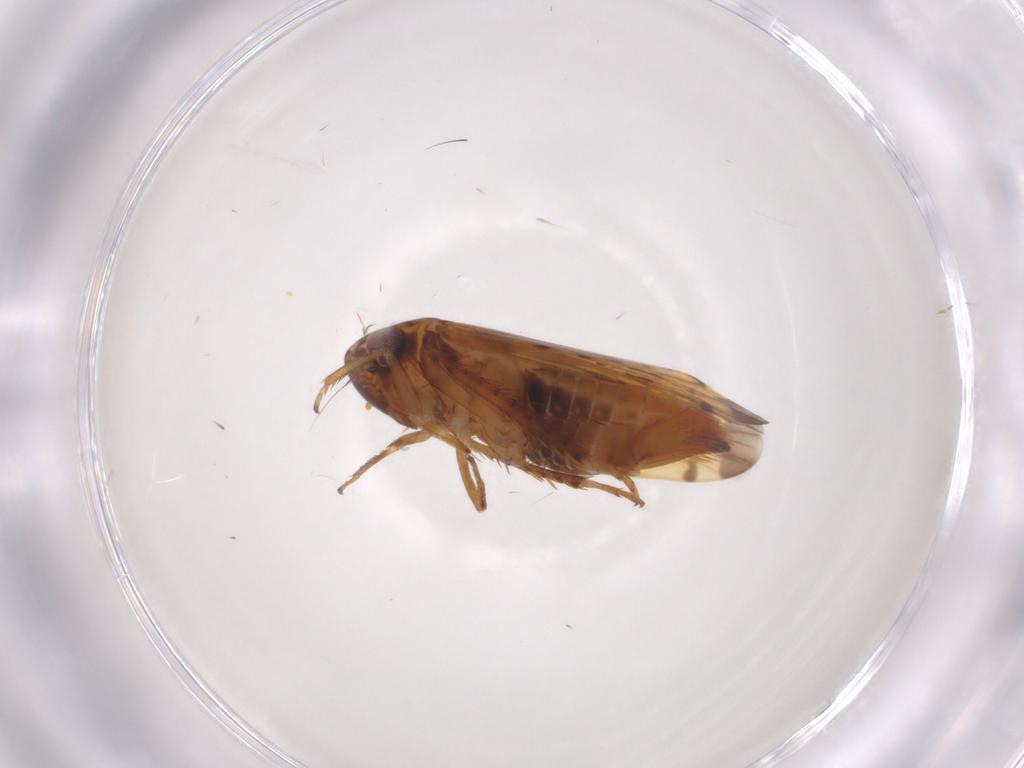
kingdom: Animalia
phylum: Arthropoda
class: Insecta
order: Hemiptera
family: Cicadellidae
